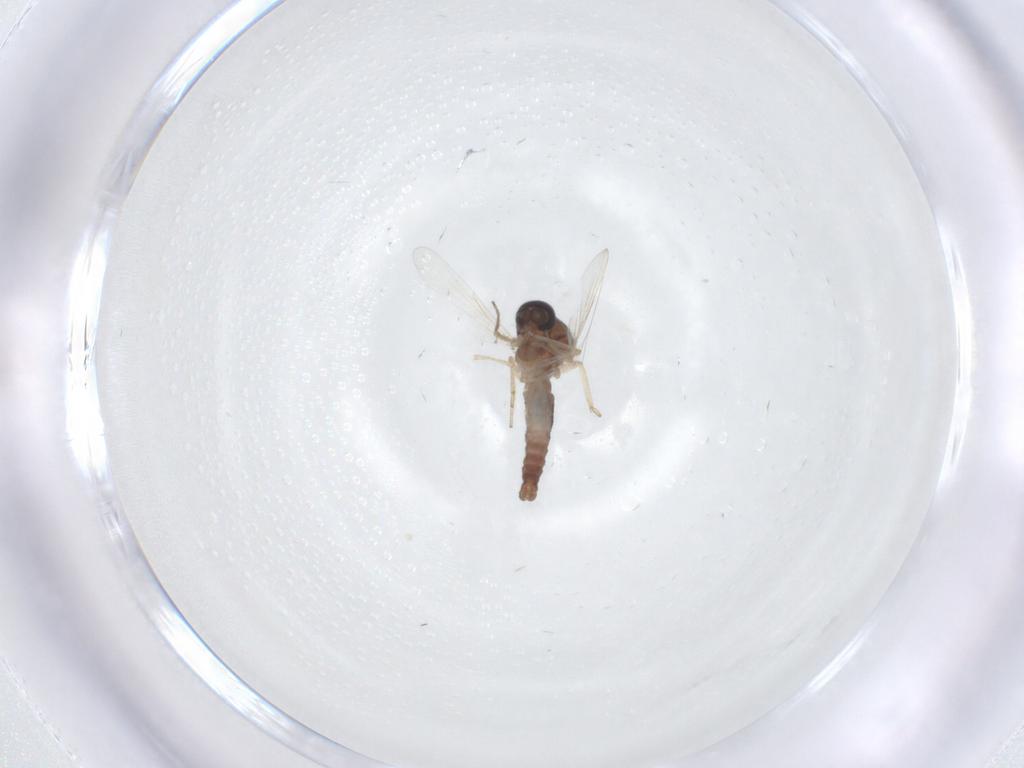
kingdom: Animalia
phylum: Arthropoda
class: Insecta
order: Diptera
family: Ceratopogonidae
